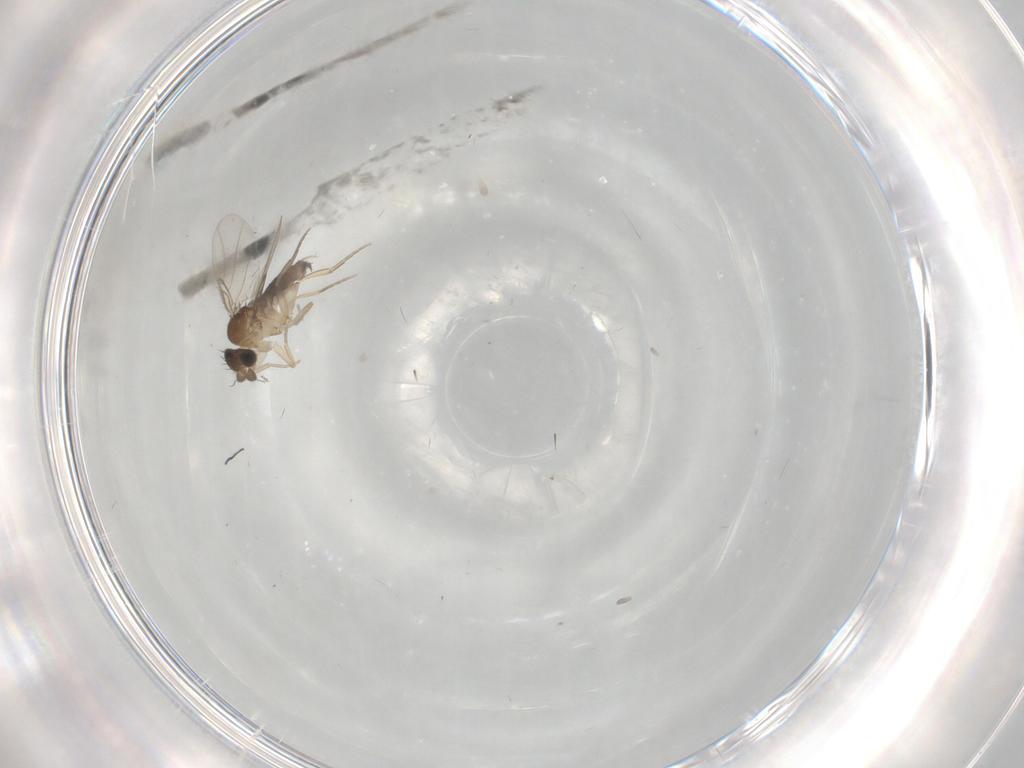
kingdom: Animalia
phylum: Arthropoda
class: Insecta
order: Diptera
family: Phoridae
